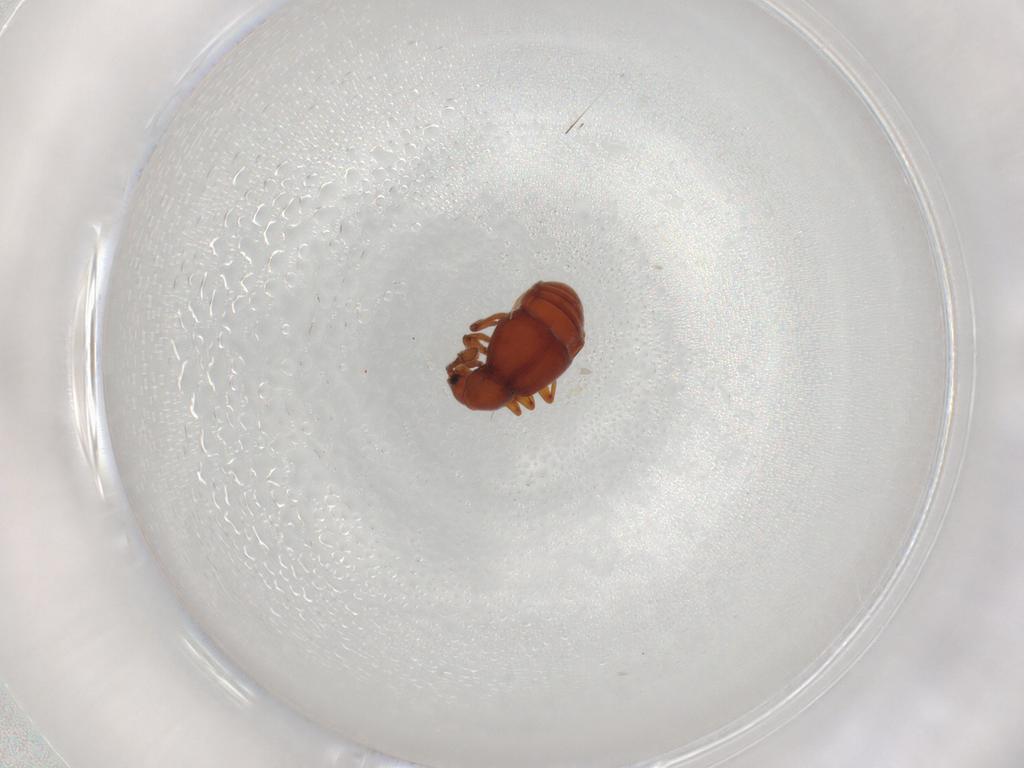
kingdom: Animalia
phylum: Arthropoda
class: Insecta
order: Coleoptera
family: Staphylinidae
